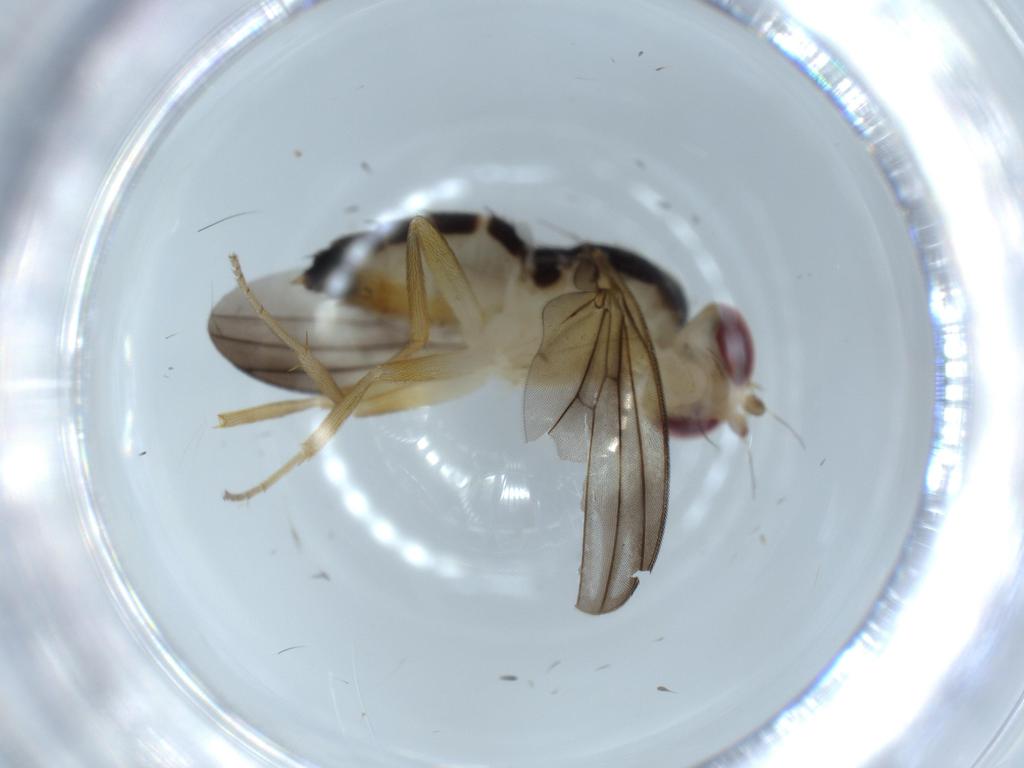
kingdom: Animalia
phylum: Arthropoda
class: Insecta
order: Diptera
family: Clusiidae
